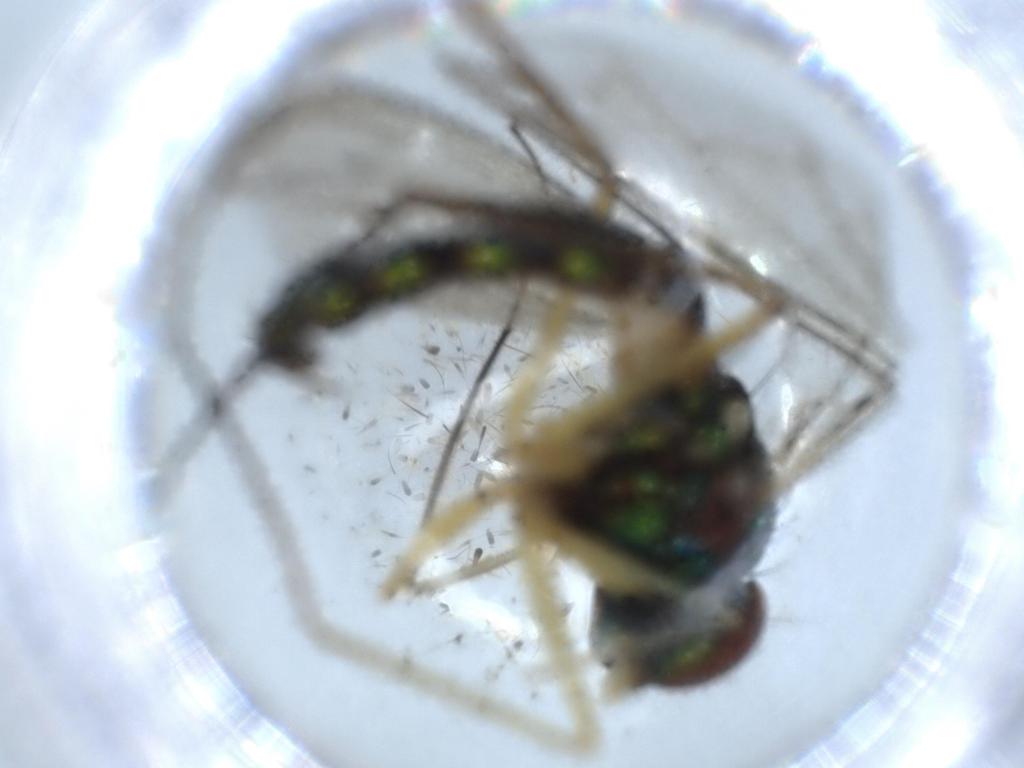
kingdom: Animalia
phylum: Arthropoda
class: Insecta
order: Diptera
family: Dolichopodidae
